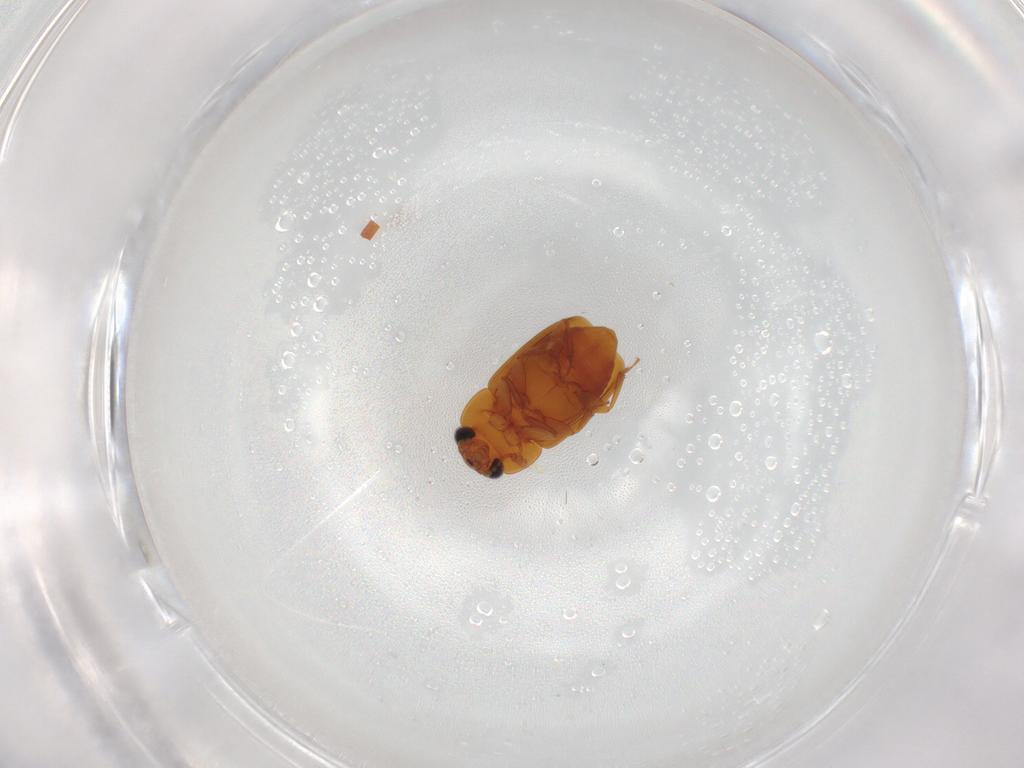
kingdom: Animalia
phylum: Arthropoda
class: Insecta
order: Coleoptera
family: Nitidulidae
